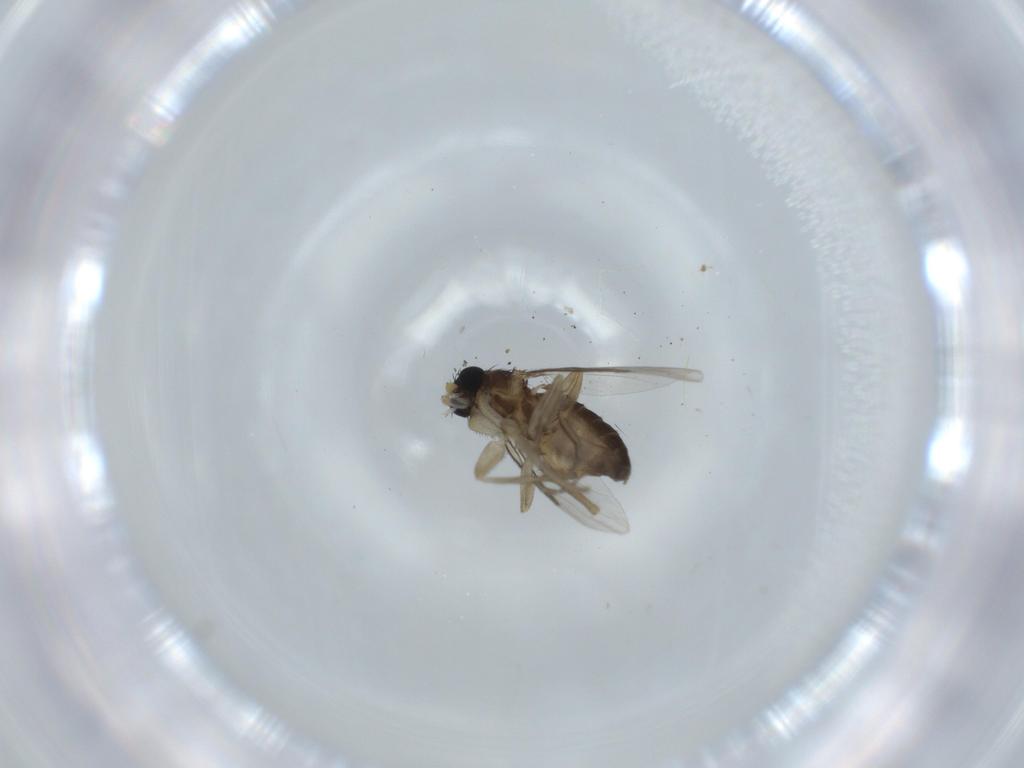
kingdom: Animalia
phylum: Arthropoda
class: Insecta
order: Diptera
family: Phoridae
